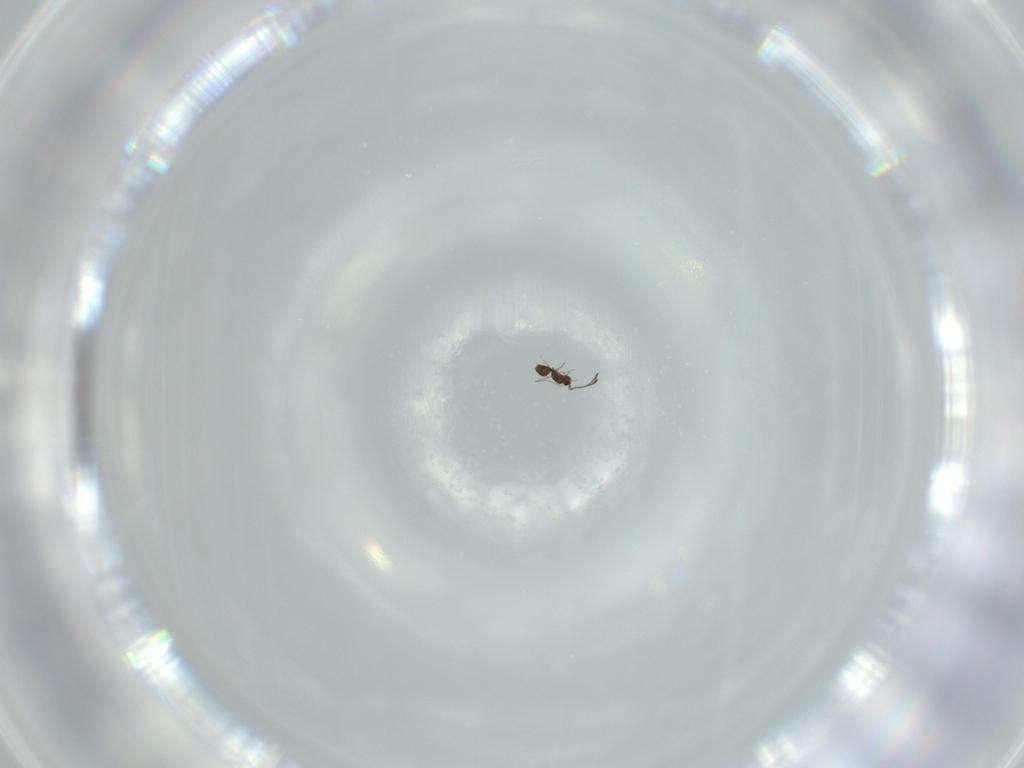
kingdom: Animalia
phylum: Arthropoda
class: Insecta
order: Hymenoptera
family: Mymaridae
